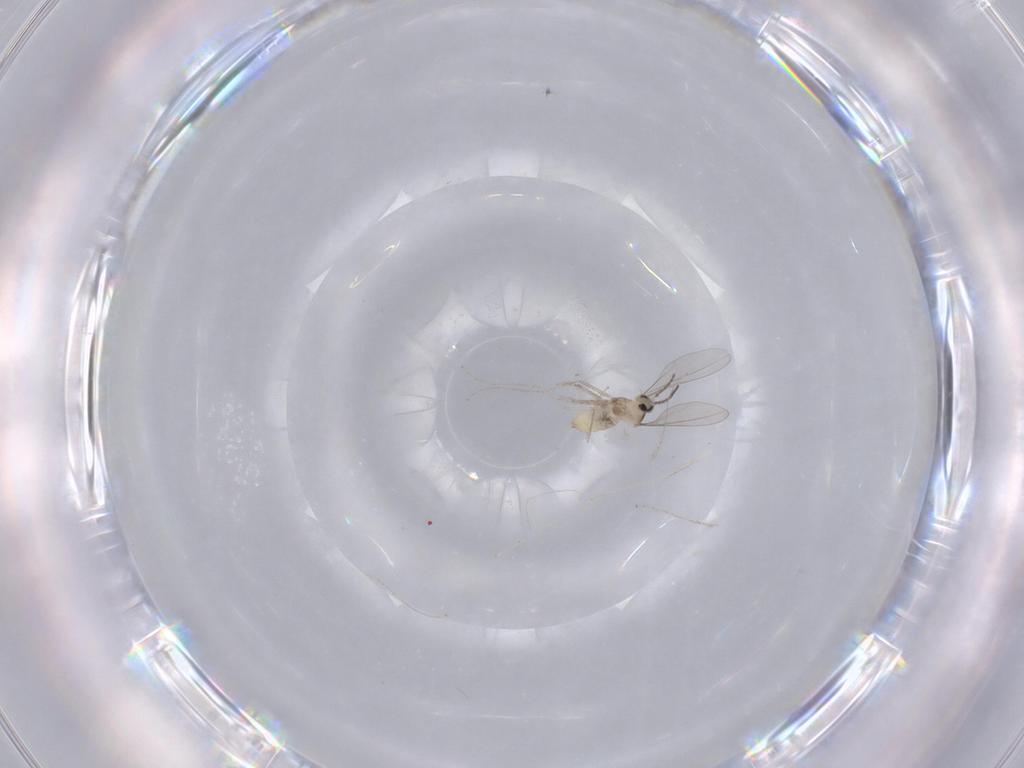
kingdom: Animalia
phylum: Arthropoda
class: Insecta
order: Diptera
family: Cecidomyiidae
